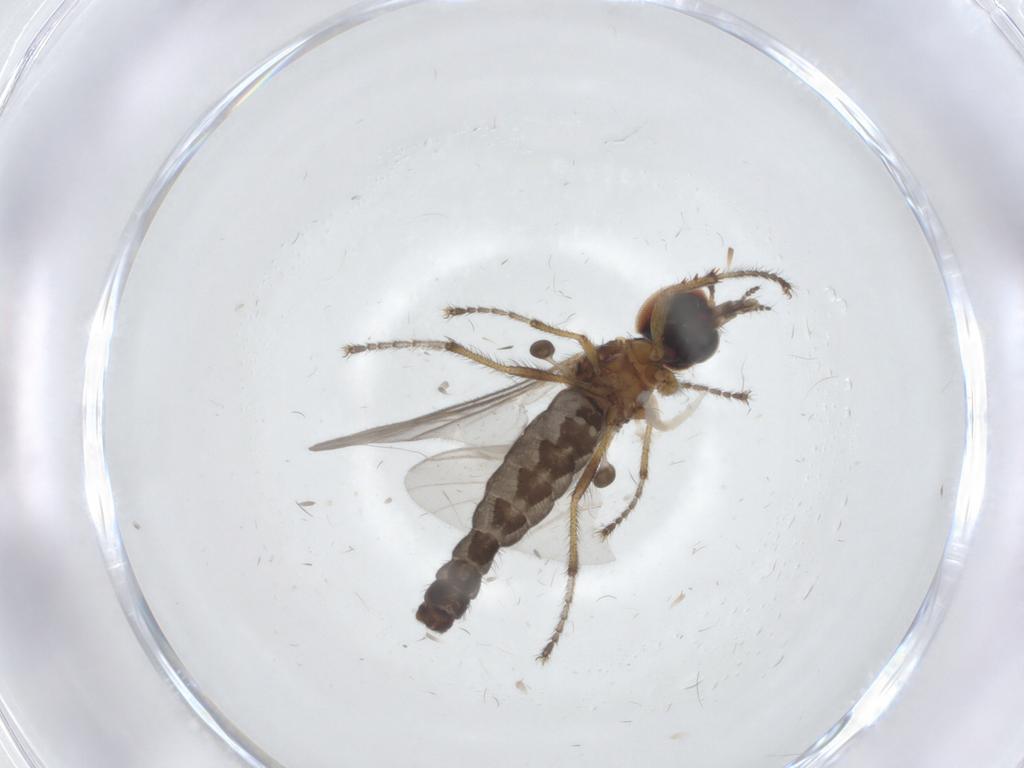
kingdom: Animalia
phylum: Arthropoda
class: Insecta
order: Diptera
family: Bibionidae
